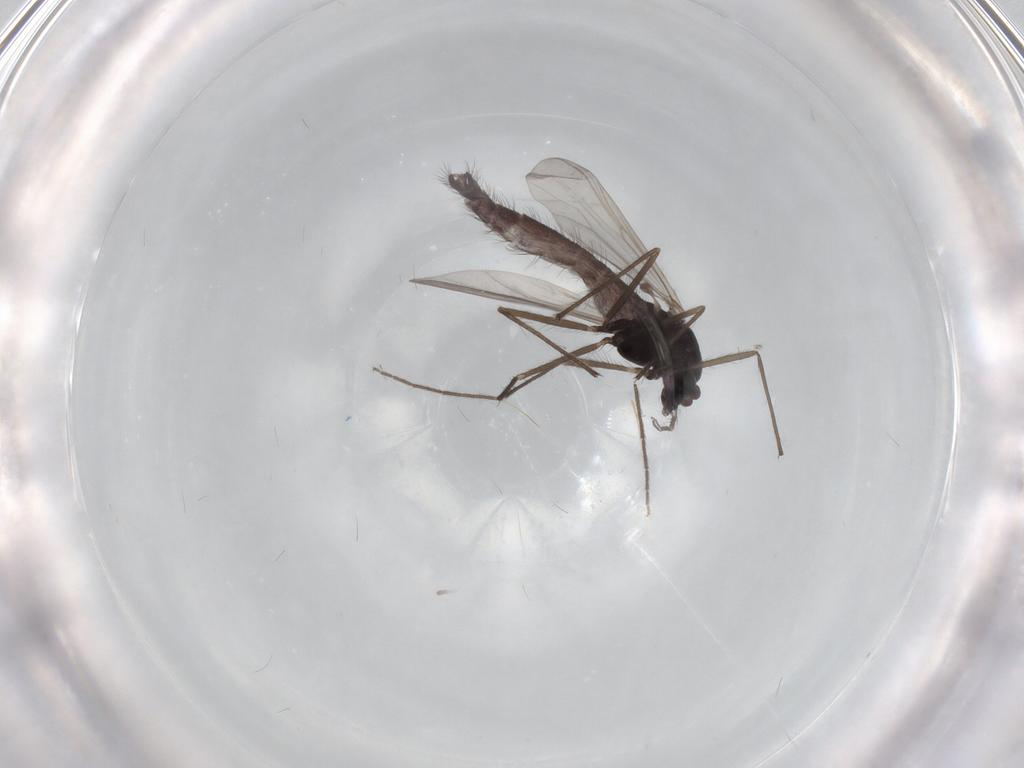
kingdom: Animalia
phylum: Arthropoda
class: Insecta
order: Diptera
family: Chironomidae
